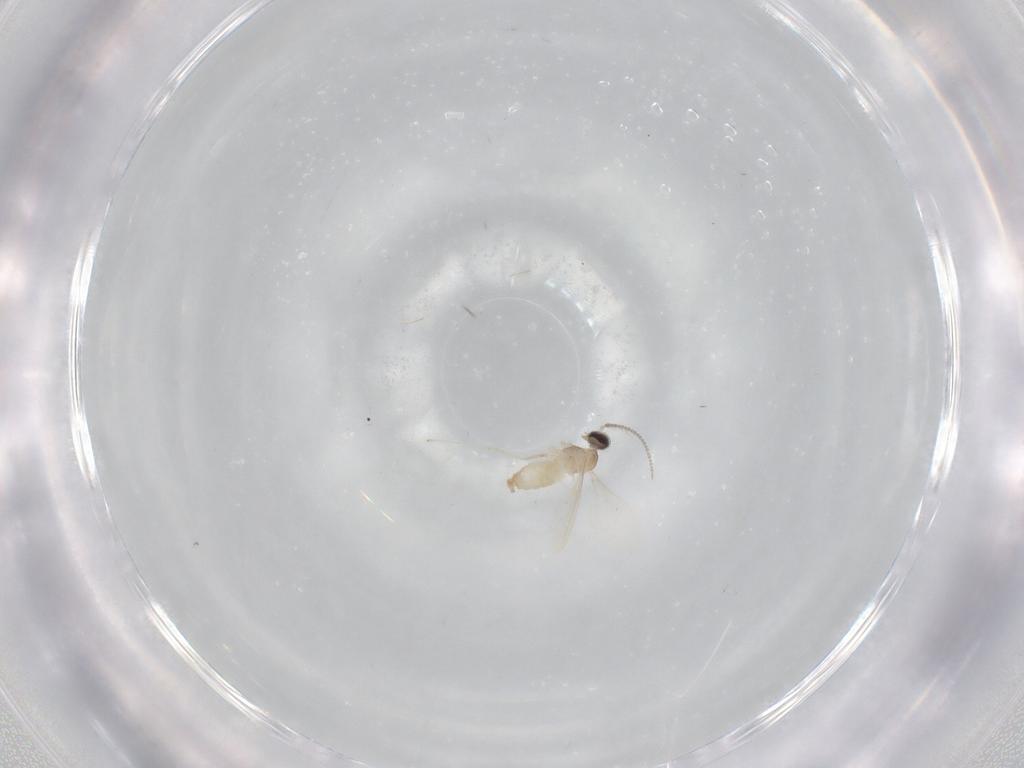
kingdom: Animalia
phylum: Arthropoda
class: Insecta
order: Diptera
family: Cecidomyiidae
